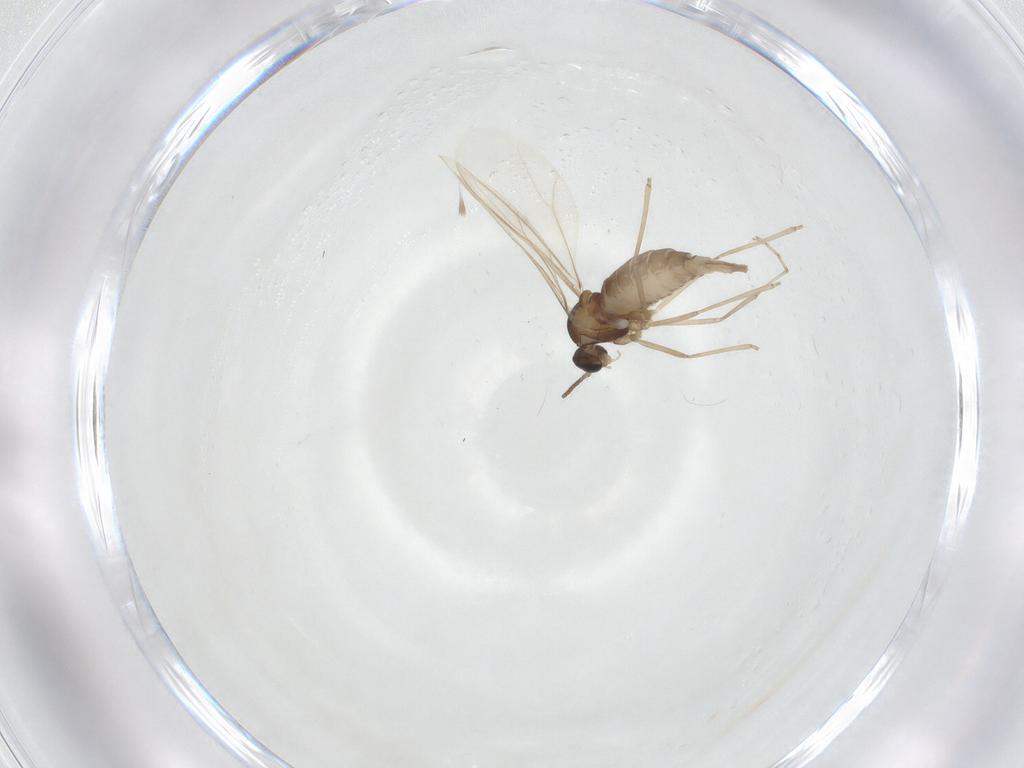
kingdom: Animalia
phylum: Arthropoda
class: Insecta
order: Diptera
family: Cecidomyiidae
